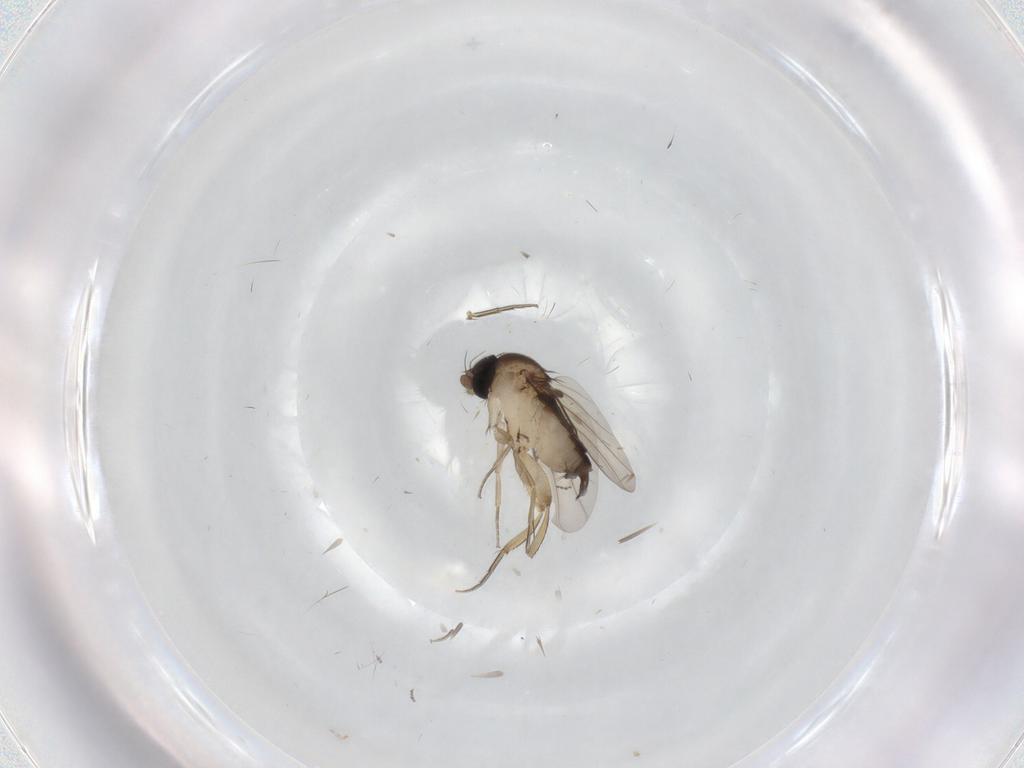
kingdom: Animalia
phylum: Arthropoda
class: Insecta
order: Diptera
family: Phoridae
